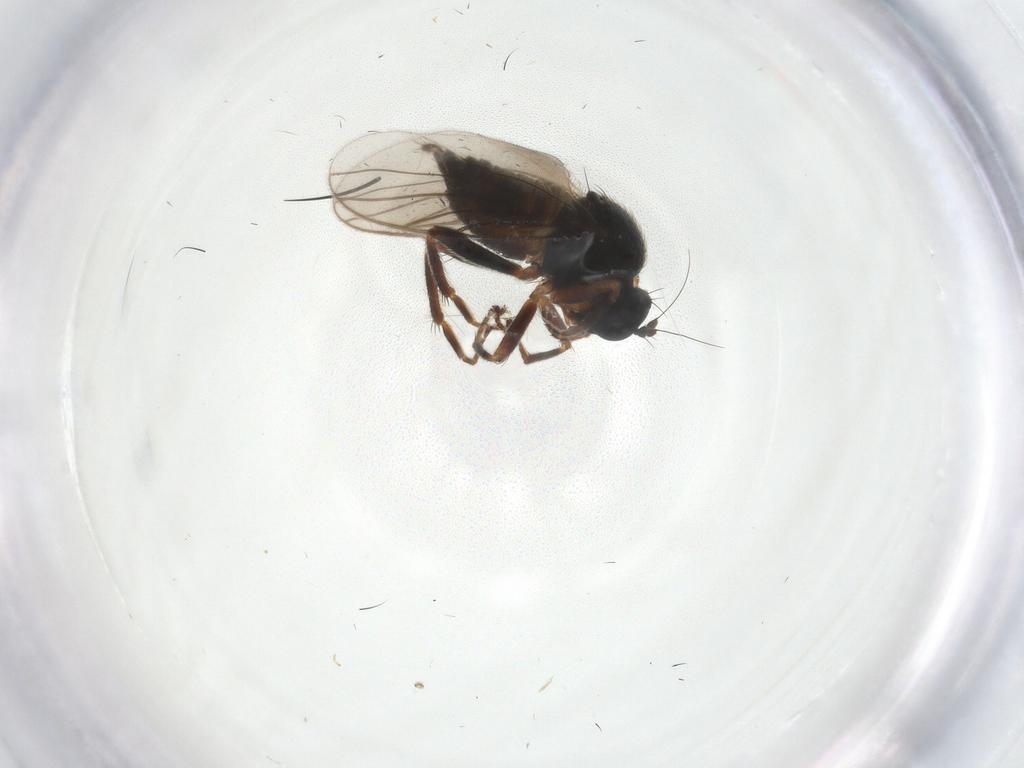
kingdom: Animalia
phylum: Arthropoda
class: Insecta
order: Diptera
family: Hybotidae
